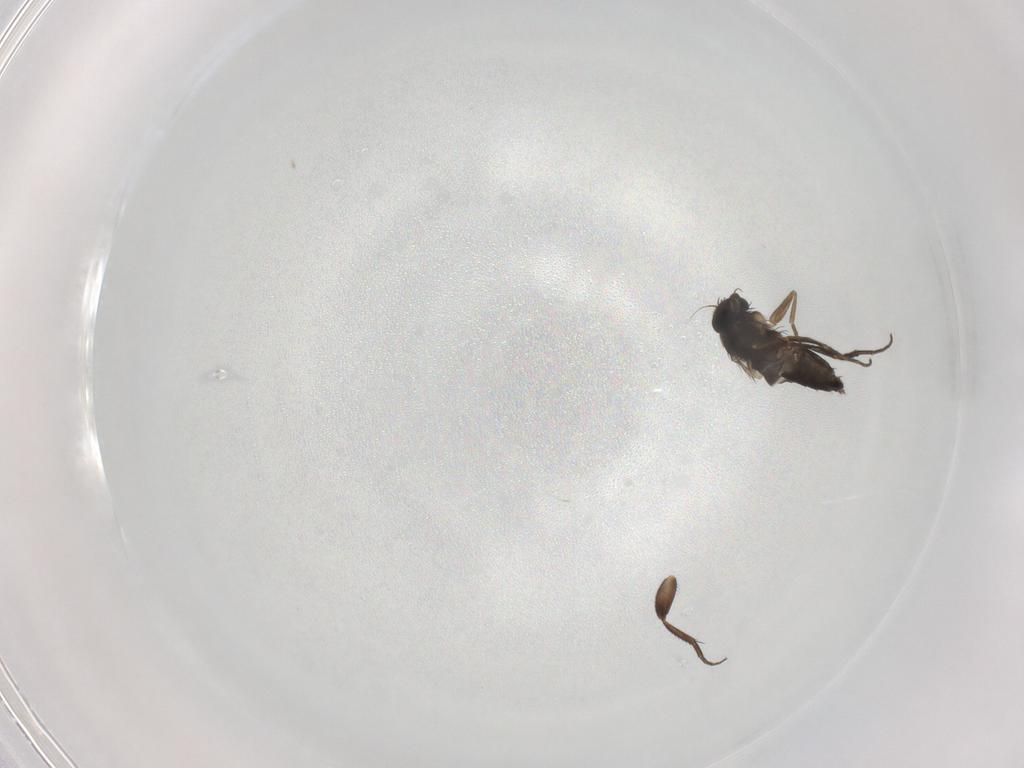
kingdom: Animalia
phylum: Arthropoda
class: Insecta
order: Diptera
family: Phoridae
